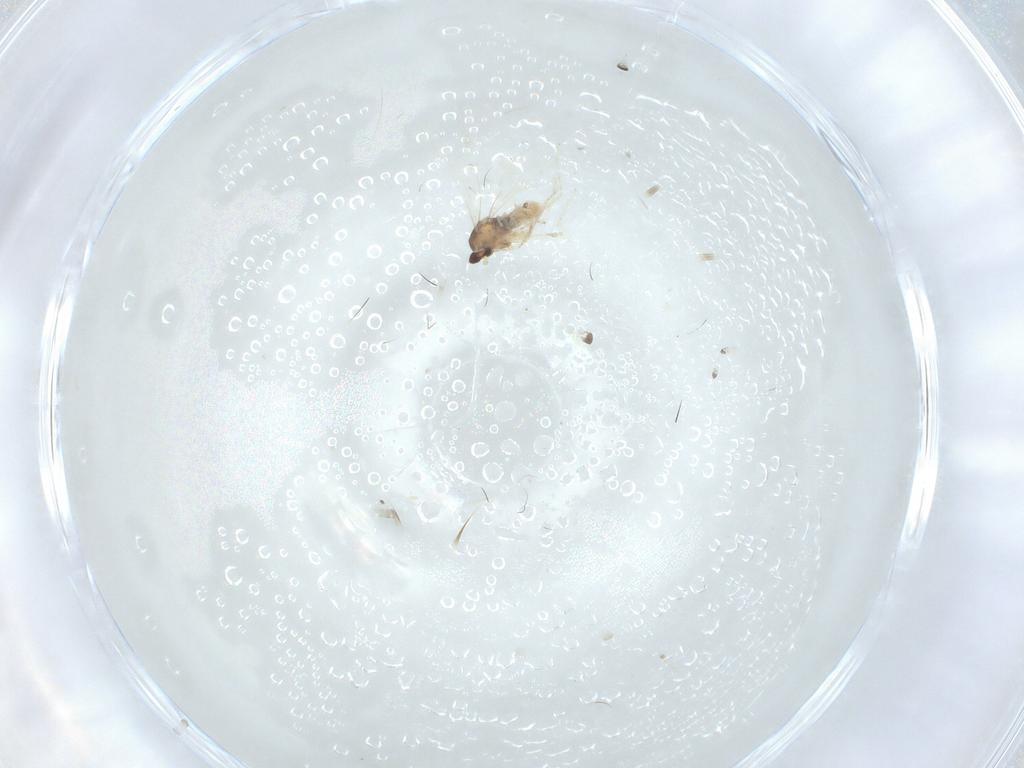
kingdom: Animalia
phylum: Arthropoda
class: Insecta
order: Diptera
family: Cecidomyiidae
